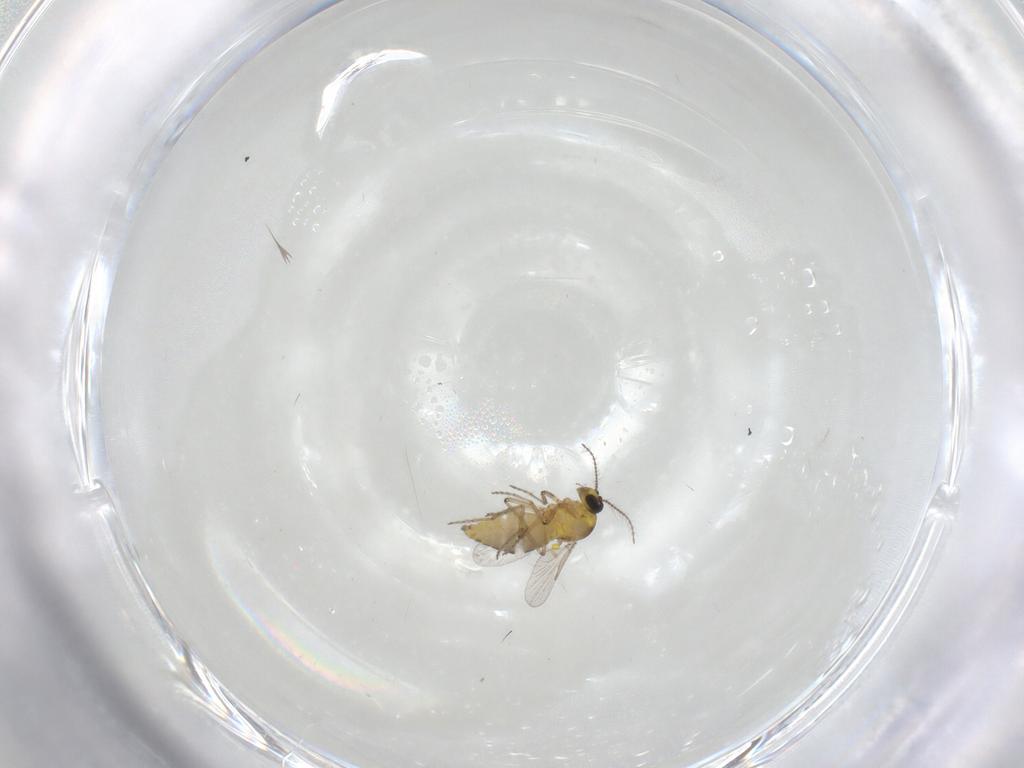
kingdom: Animalia
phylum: Arthropoda
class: Insecta
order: Diptera
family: Ceratopogonidae
